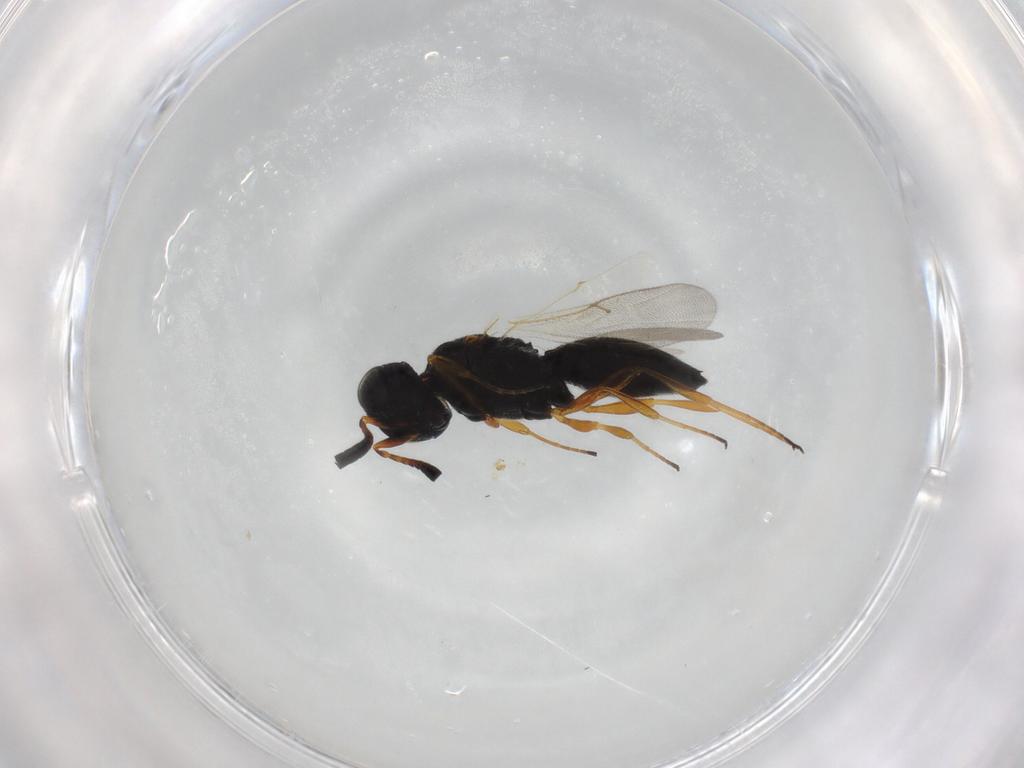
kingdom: Animalia
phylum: Arthropoda
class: Insecta
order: Hymenoptera
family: Scelionidae
